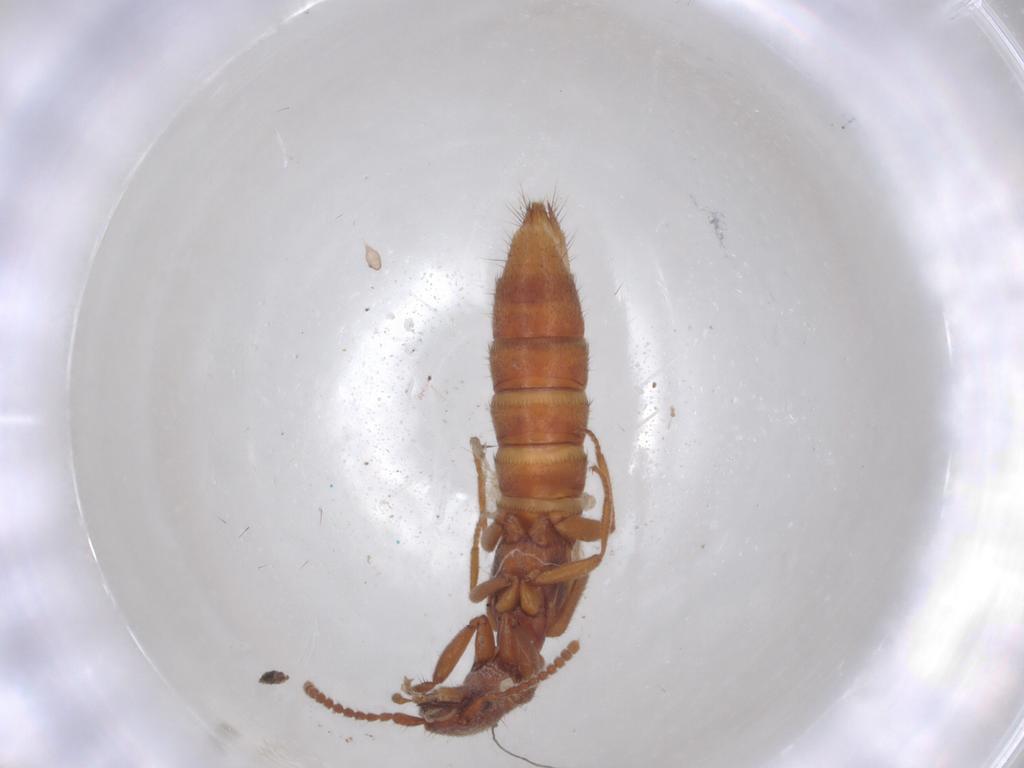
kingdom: Animalia
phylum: Arthropoda
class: Insecta
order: Coleoptera
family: Staphylinidae
